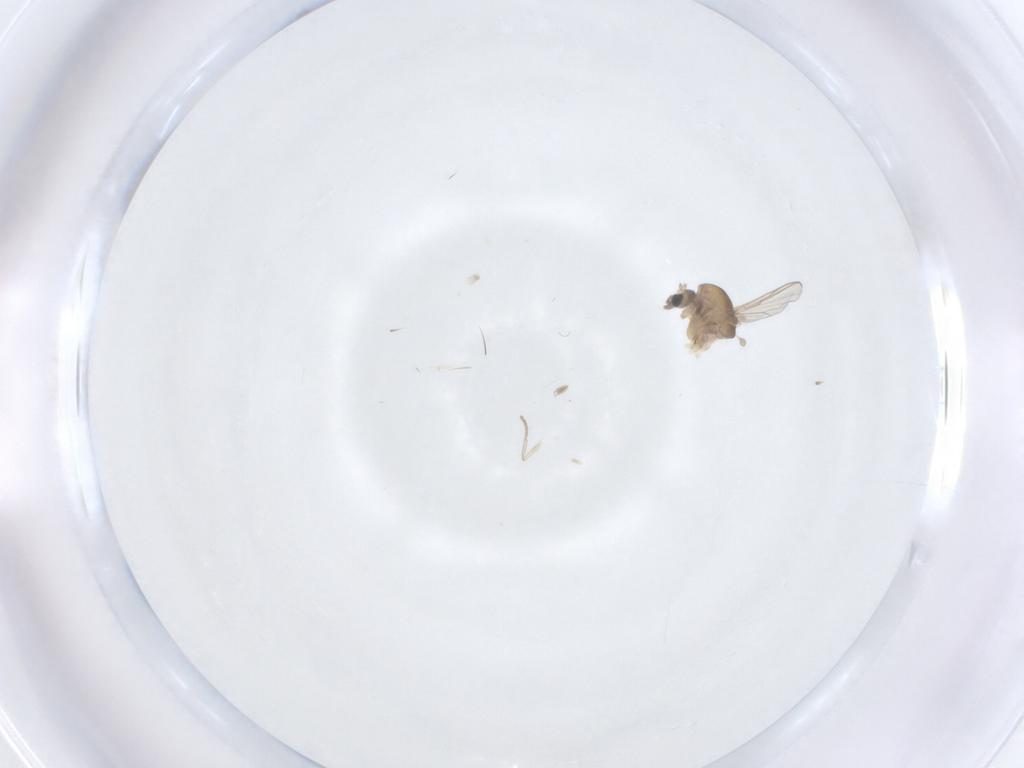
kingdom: Animalia
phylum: Arthropoda
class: Insecta
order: Diptera
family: Chironomidae
